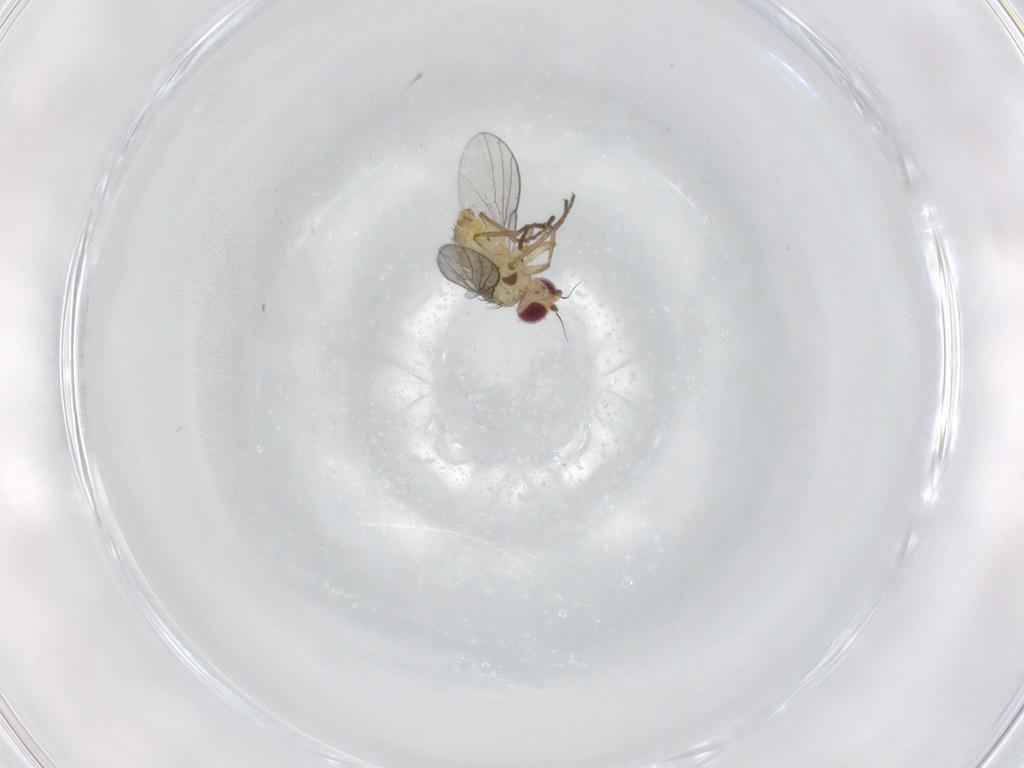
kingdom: Animalia
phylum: Arthropoda
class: Insecta
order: Diptera
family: Agromyzidae
